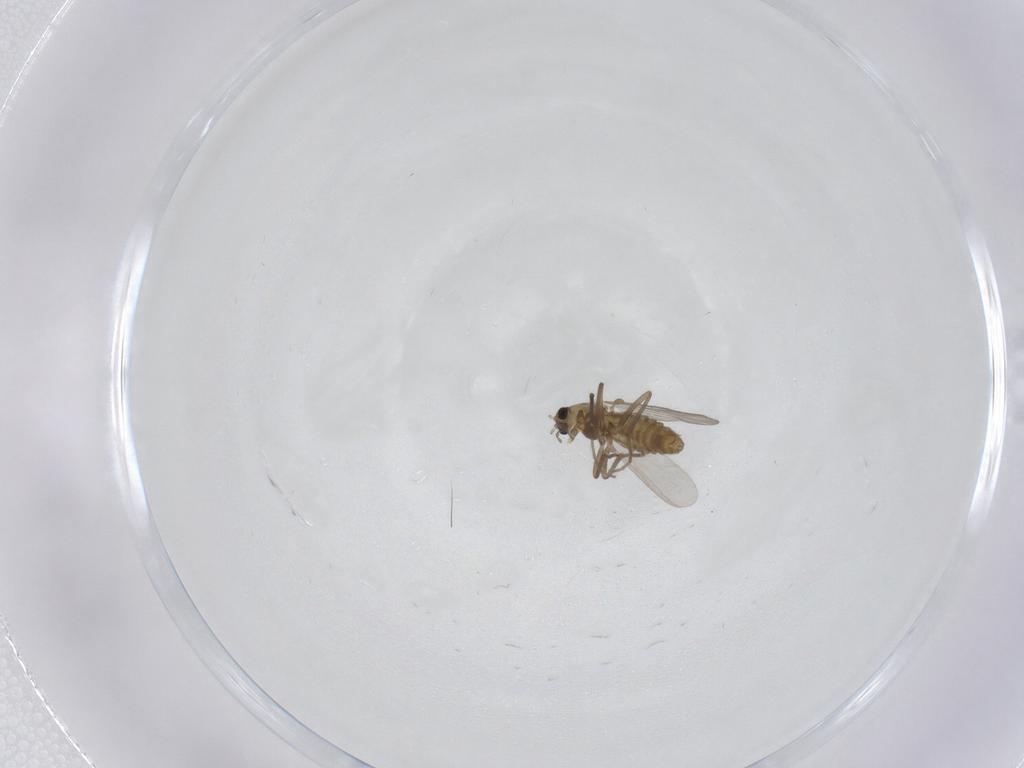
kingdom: Animalia
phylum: Arthropoda
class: Insecta
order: Diptera
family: Chironomidae
